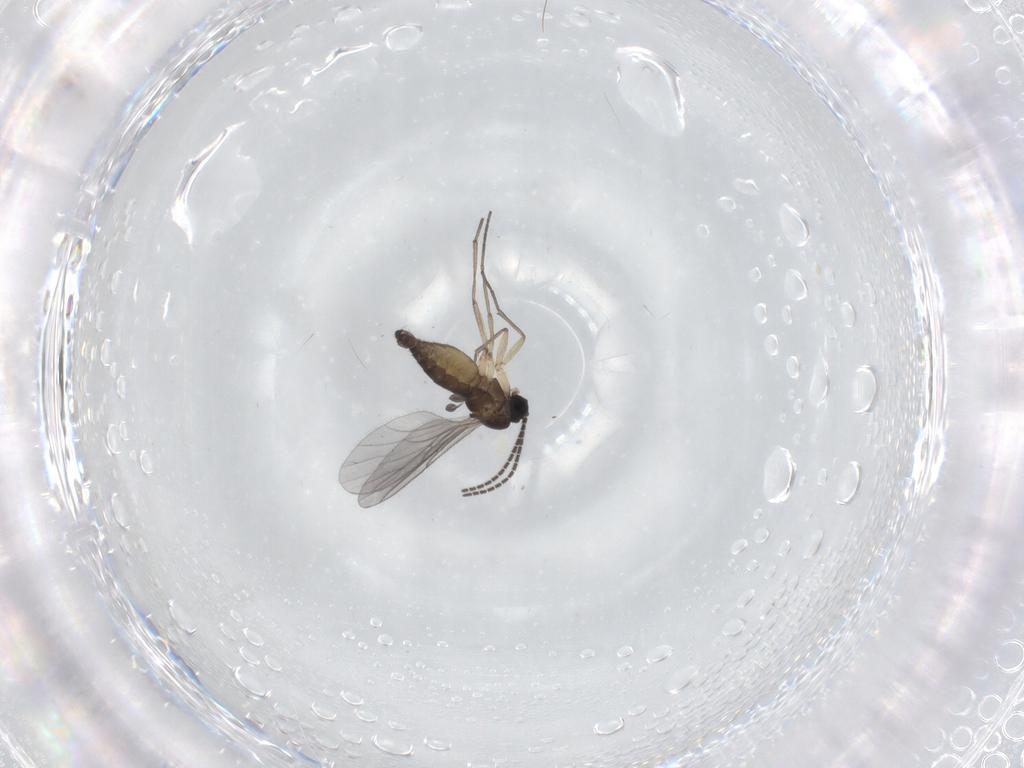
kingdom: Animalia
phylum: Arthropoda
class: Insecta
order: Diptera
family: Sciaridae
